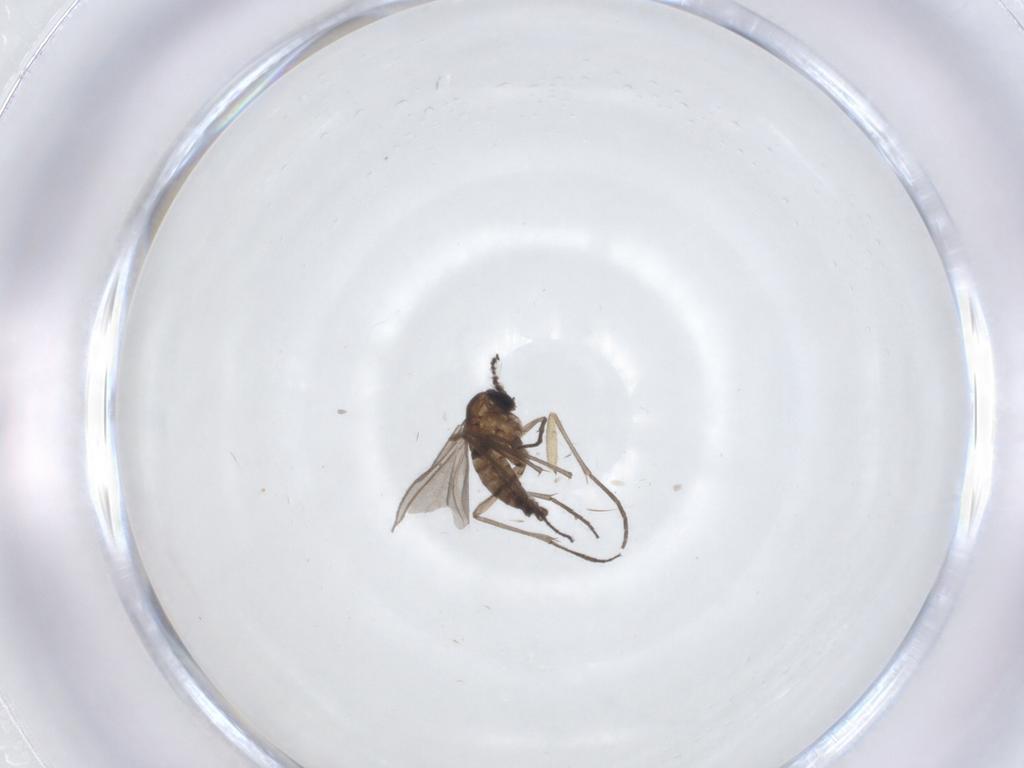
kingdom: Animalia
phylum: Arthropoda
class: Insecta
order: Diptera
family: Sciaridae
